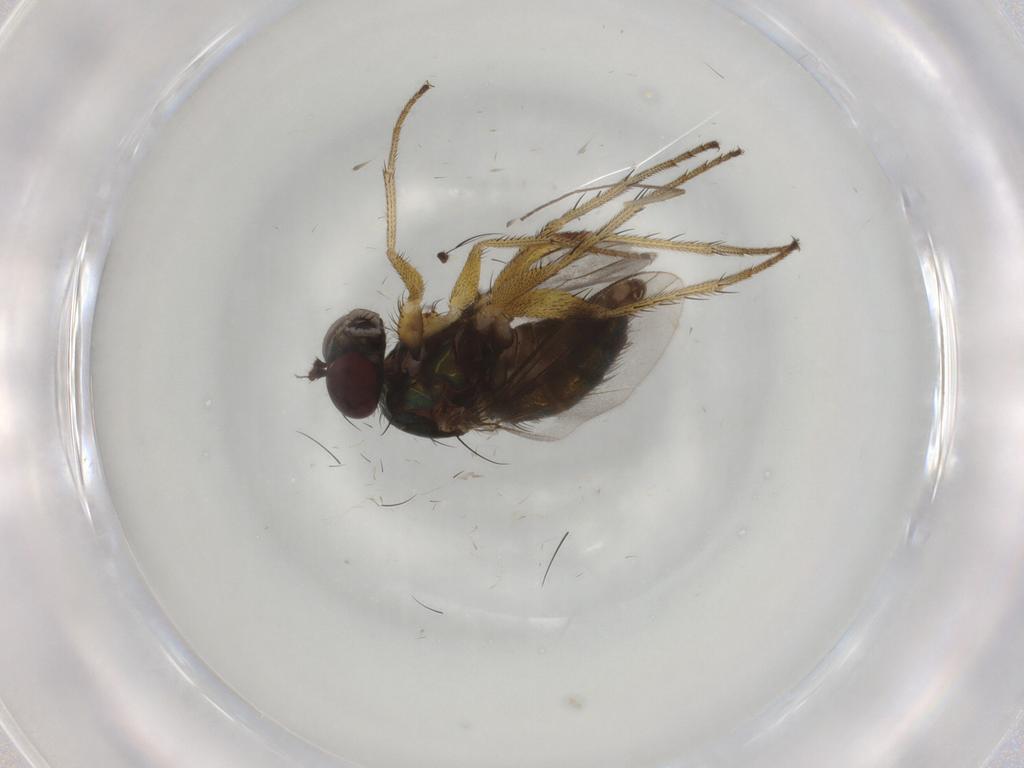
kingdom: Animalia
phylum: Arthropoda
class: Insecta
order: Diptera
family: Dolichopodidae
